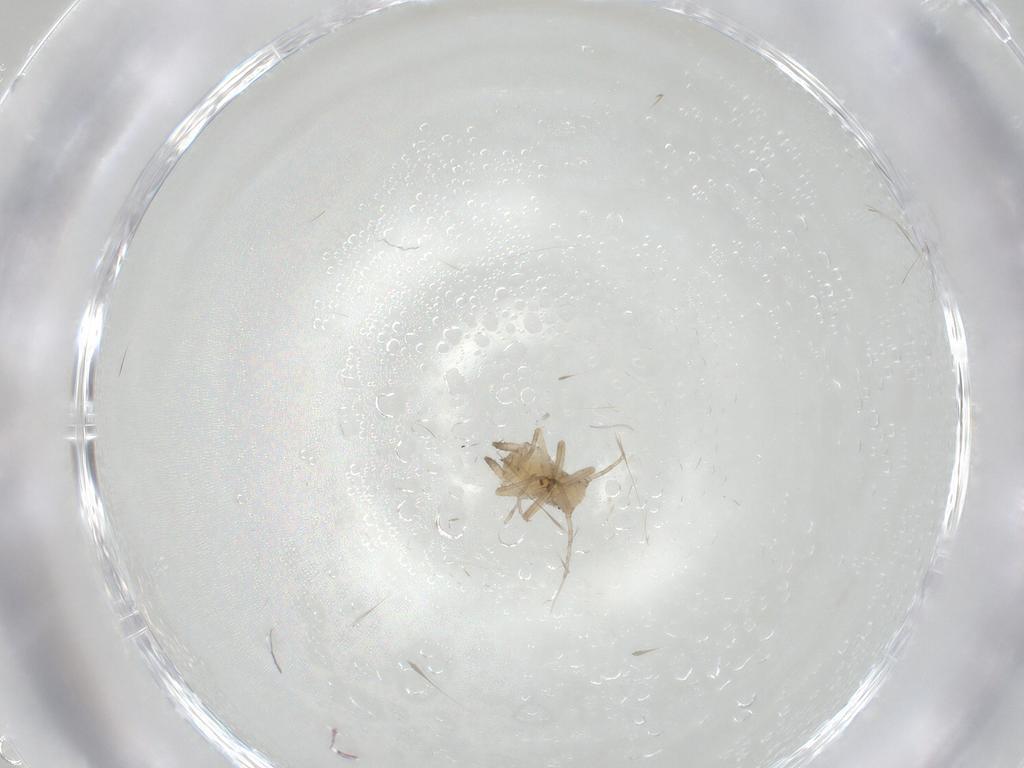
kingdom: Animalia
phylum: Arthropoda
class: Insecta
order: Hemiptera
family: Aphididae
